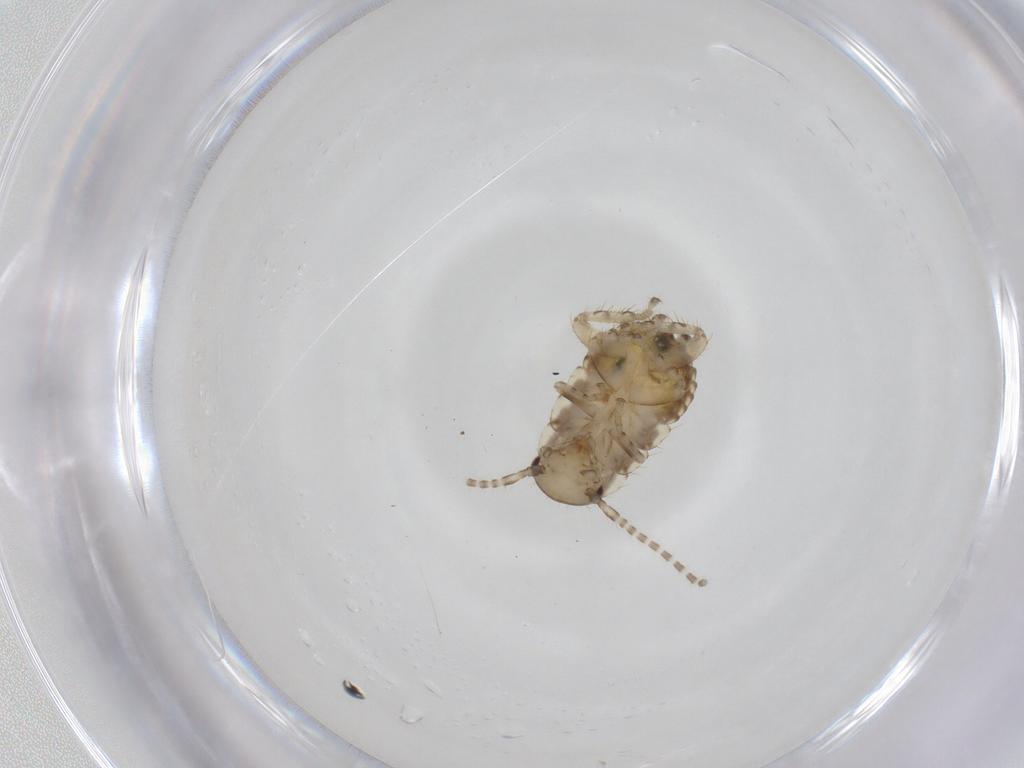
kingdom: Animalia
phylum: Arthropoda
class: Insecta
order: Blattodea
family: Ectobiidae
